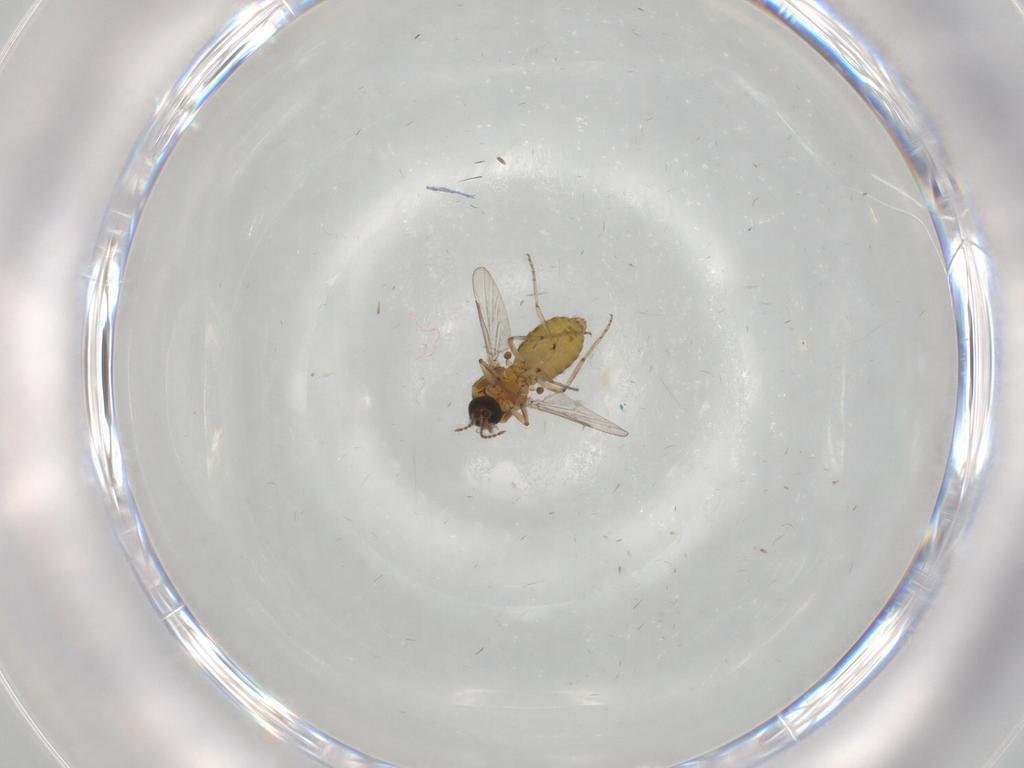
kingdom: Animalia
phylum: Arthropoda
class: Insecta
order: Diptera
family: Ceratopogonidae
